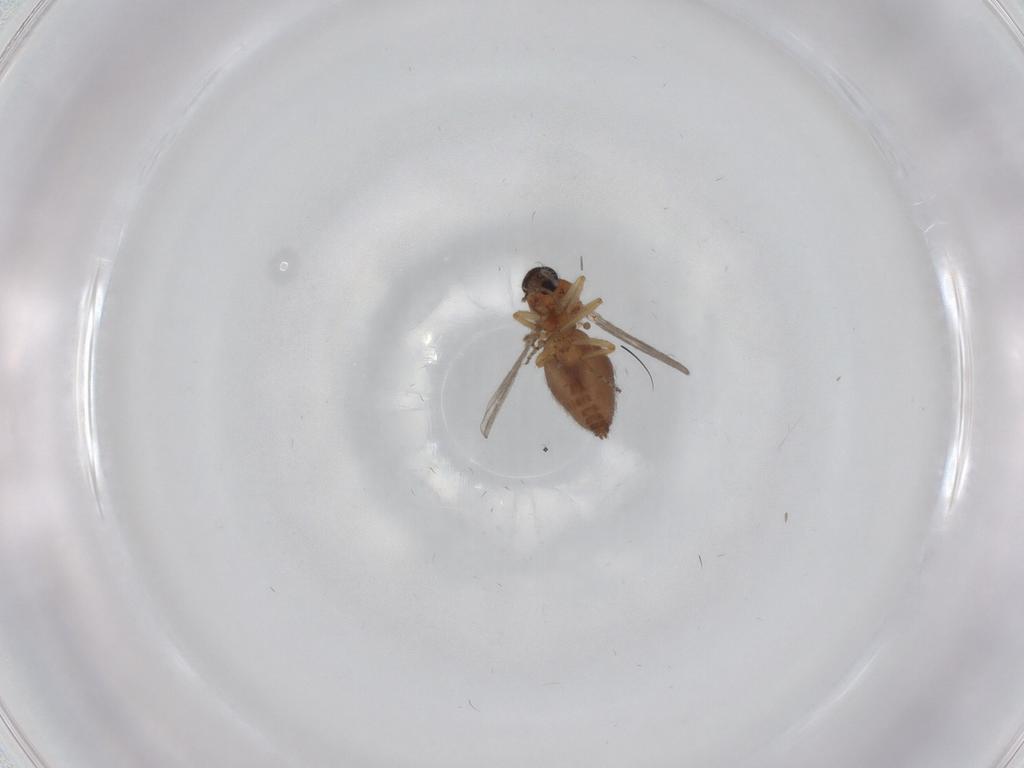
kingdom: Animalia
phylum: Arthropoda
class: Insecta
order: Diptera
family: Ceratopogonidae
